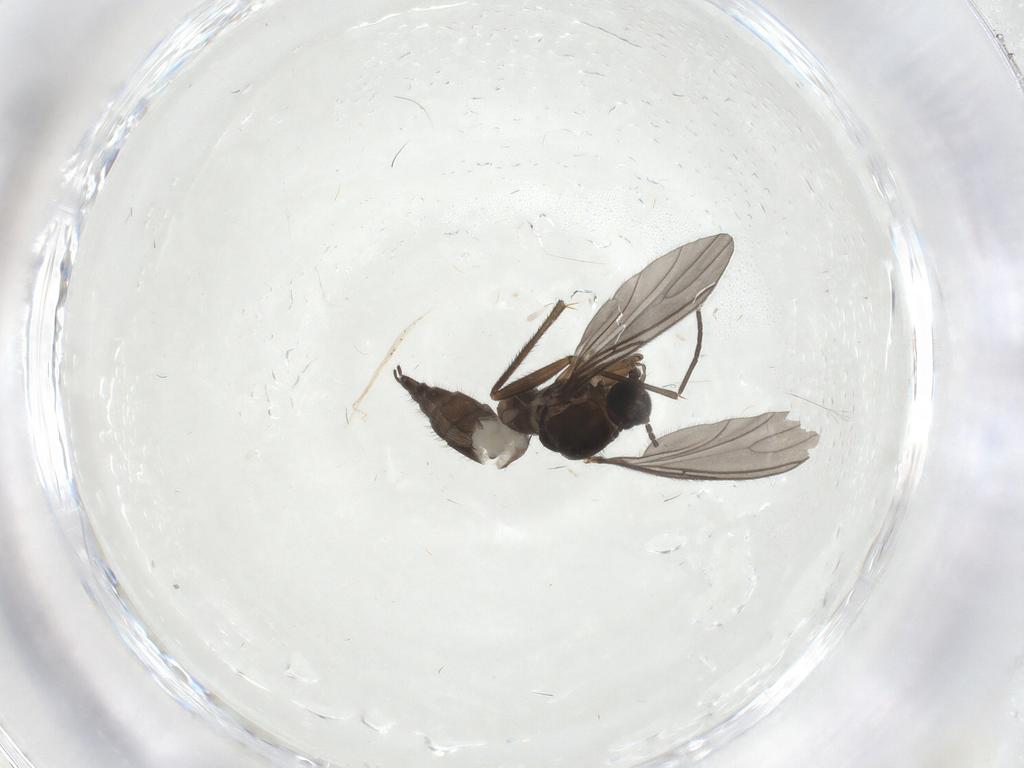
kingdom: Animalia
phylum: Arthropoda
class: Insecta
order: Diptera
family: Sciaridae
